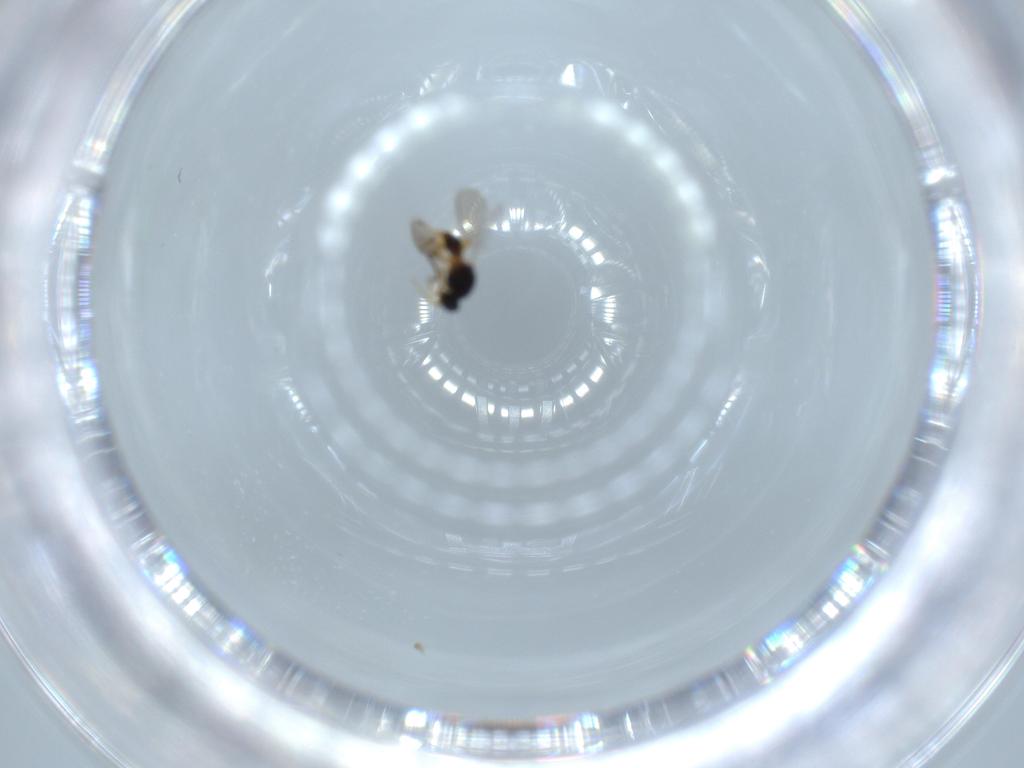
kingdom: Animalia
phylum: Arthropoda
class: Insecta
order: Hymenoptera
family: Platygastridae
